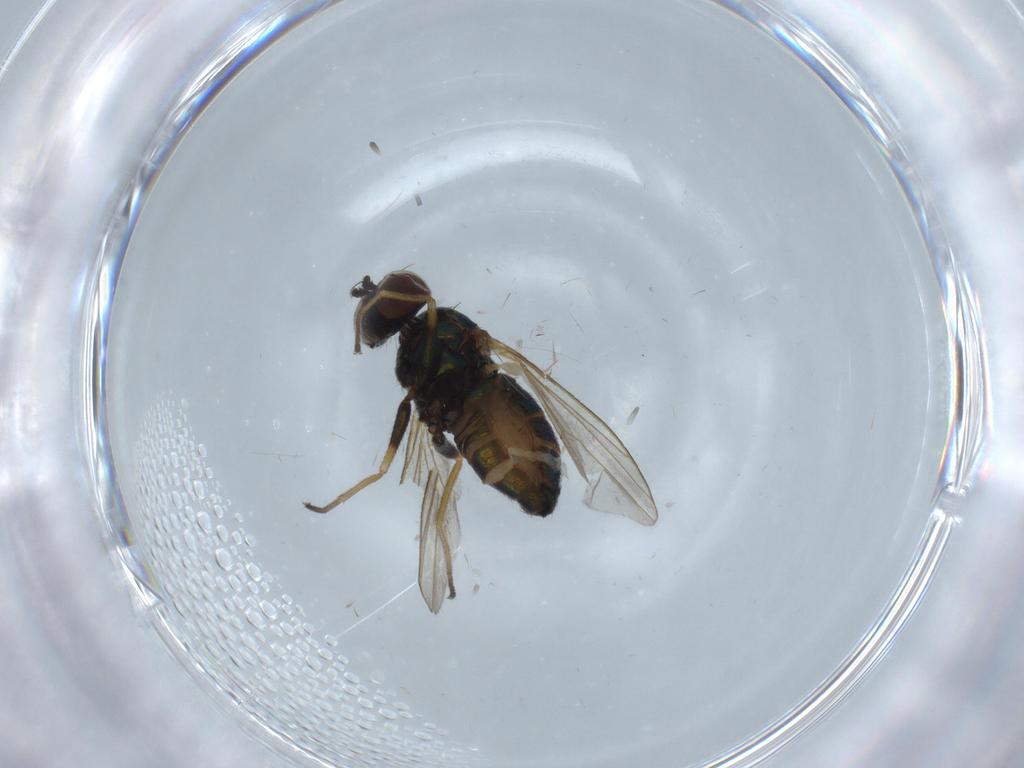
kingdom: Animalia
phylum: Arthropoda
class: Insecta
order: Diptera
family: Dolichopodidae
